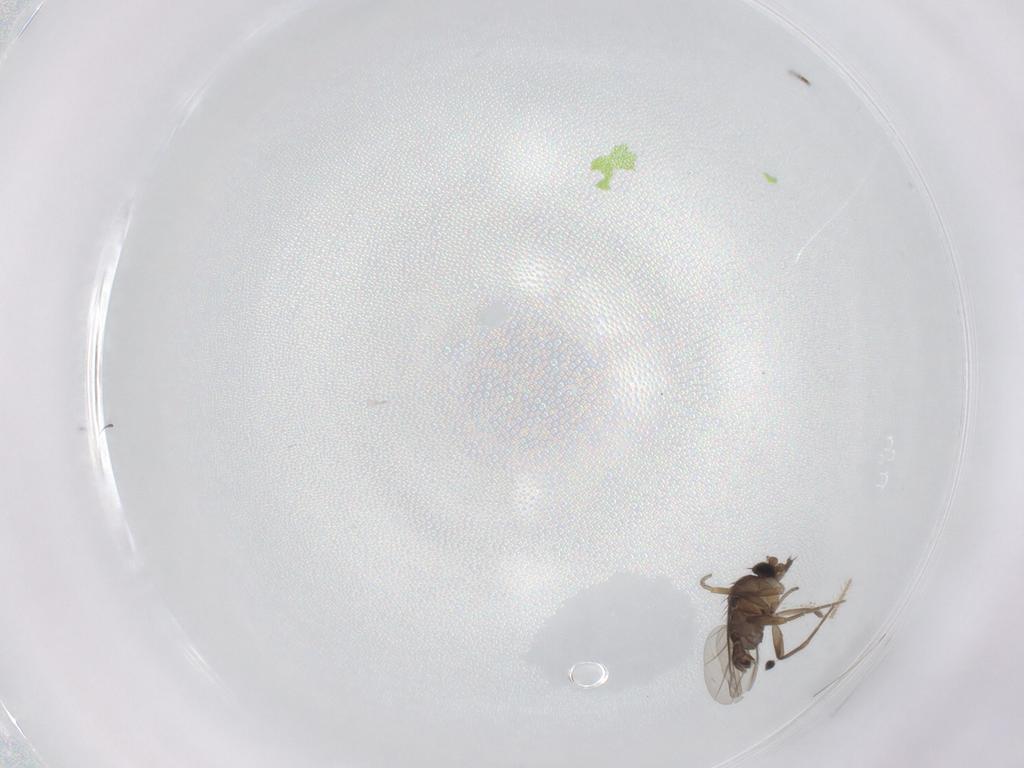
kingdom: Animalia
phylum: Arthropoda
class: Insecta
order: Diptera
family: Phoridae
